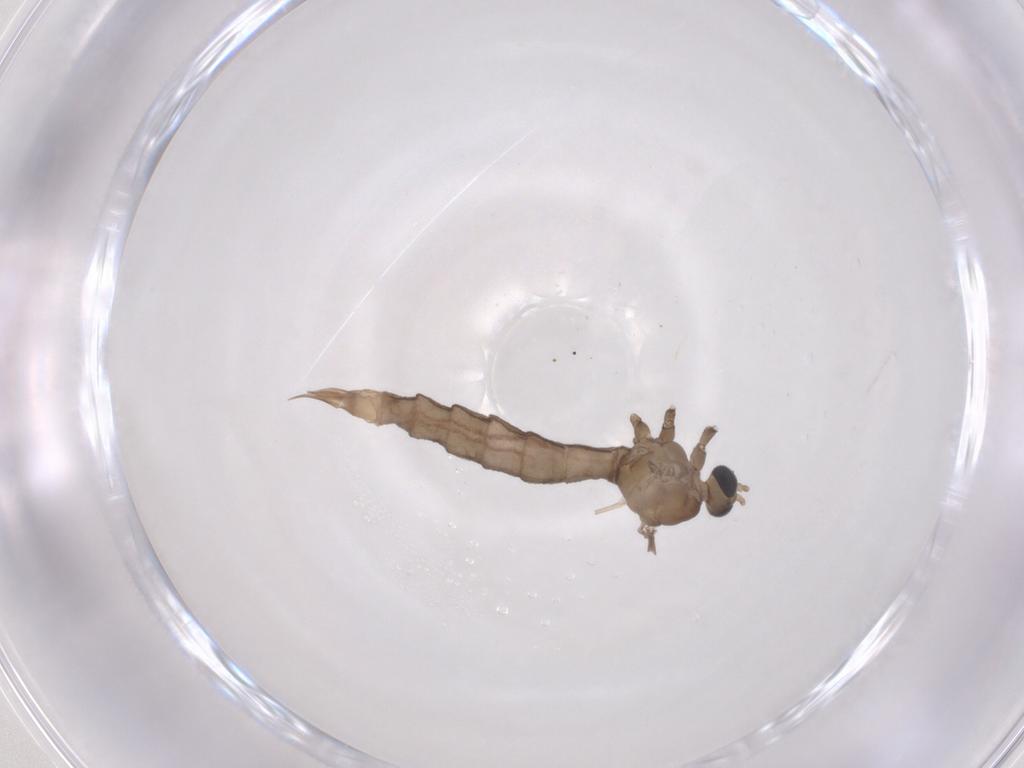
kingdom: Animalia
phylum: Arthropoda
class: Insecta
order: Diptera
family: Limoniidae
